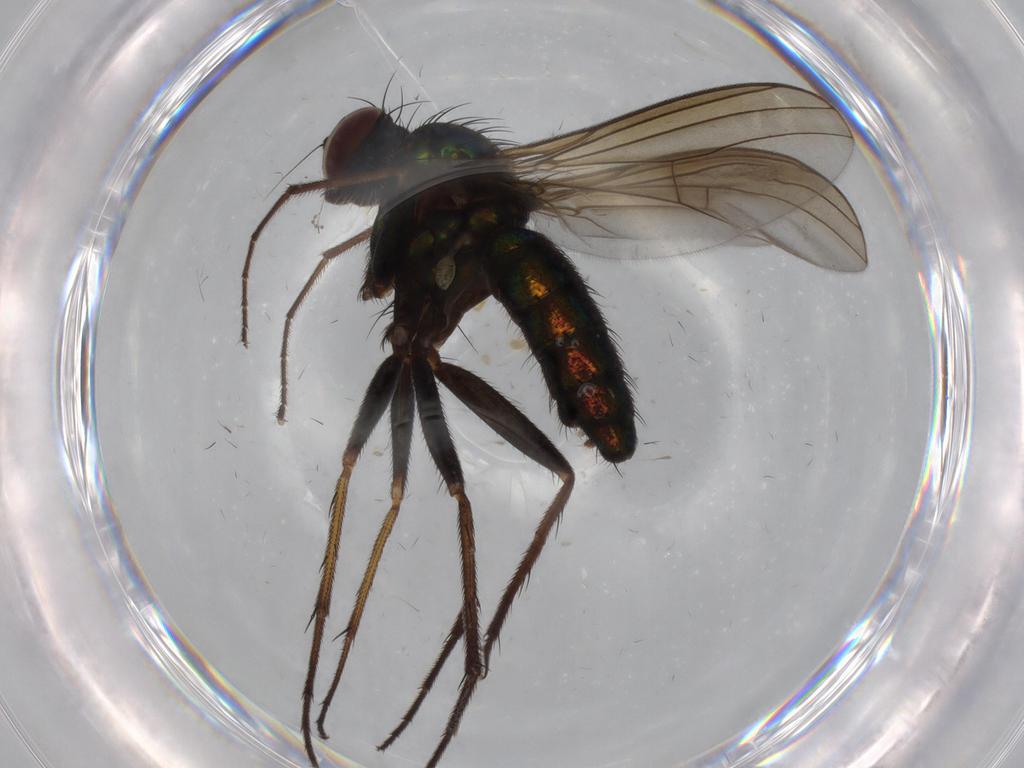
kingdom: Animalia
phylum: Arthropoda
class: Insecta
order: Diptera
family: Dolichopodidae
